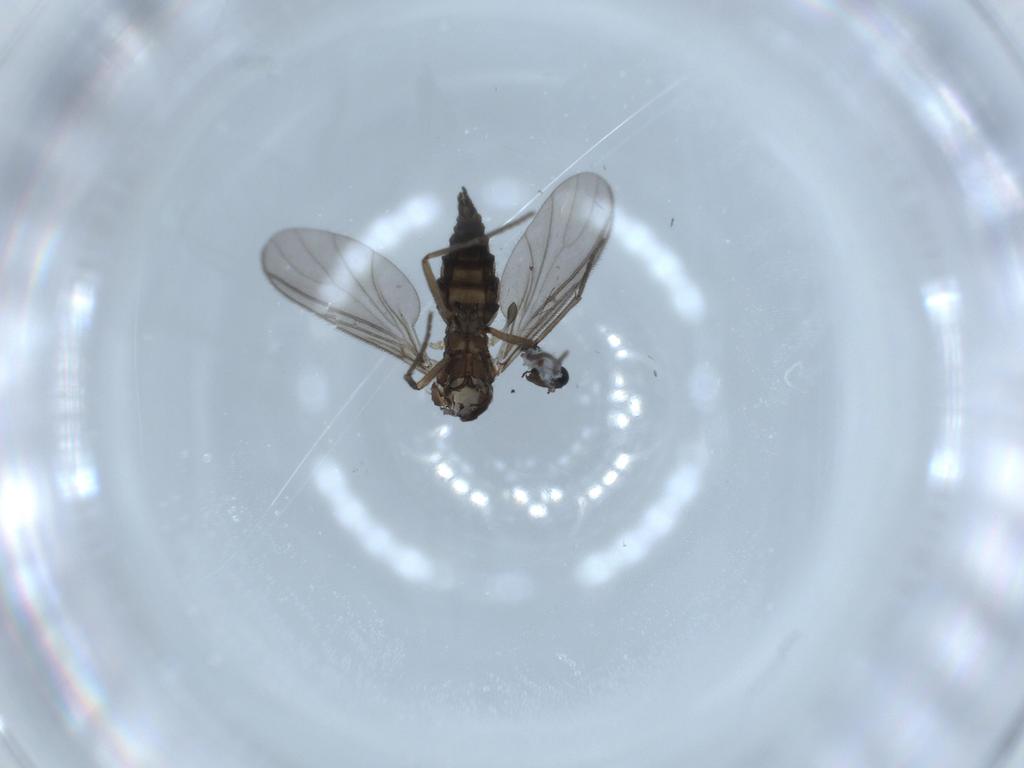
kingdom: Animalia
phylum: Arthropoda
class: Insecta
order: Diptera
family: Sciaridae
